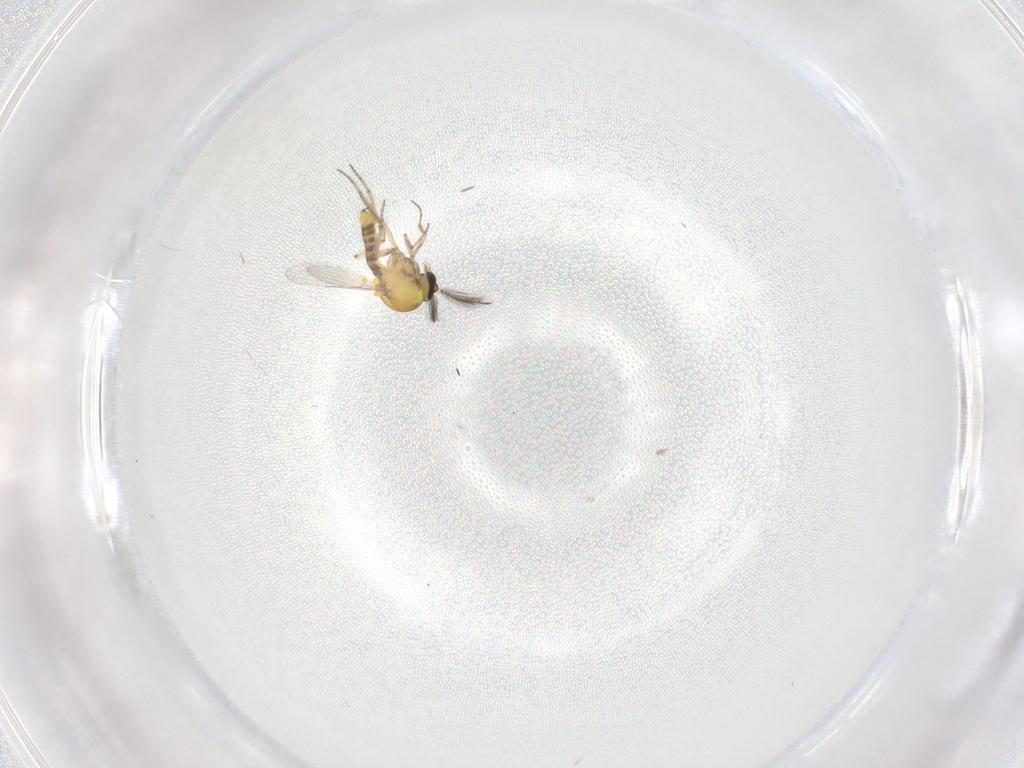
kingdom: Animalia
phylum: Arthropoda
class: Insecta
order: Diptera
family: Ceratopogonidae
